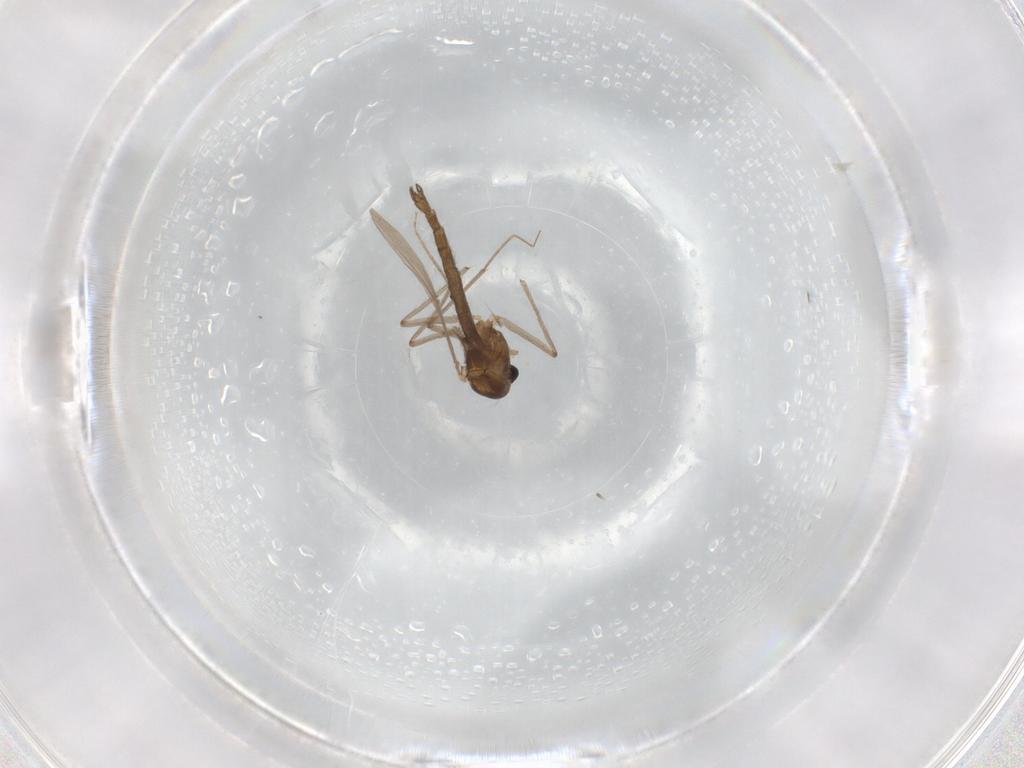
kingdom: Animalia
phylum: Arthropoda
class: Insecta
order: Diptera
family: Chironomidae
